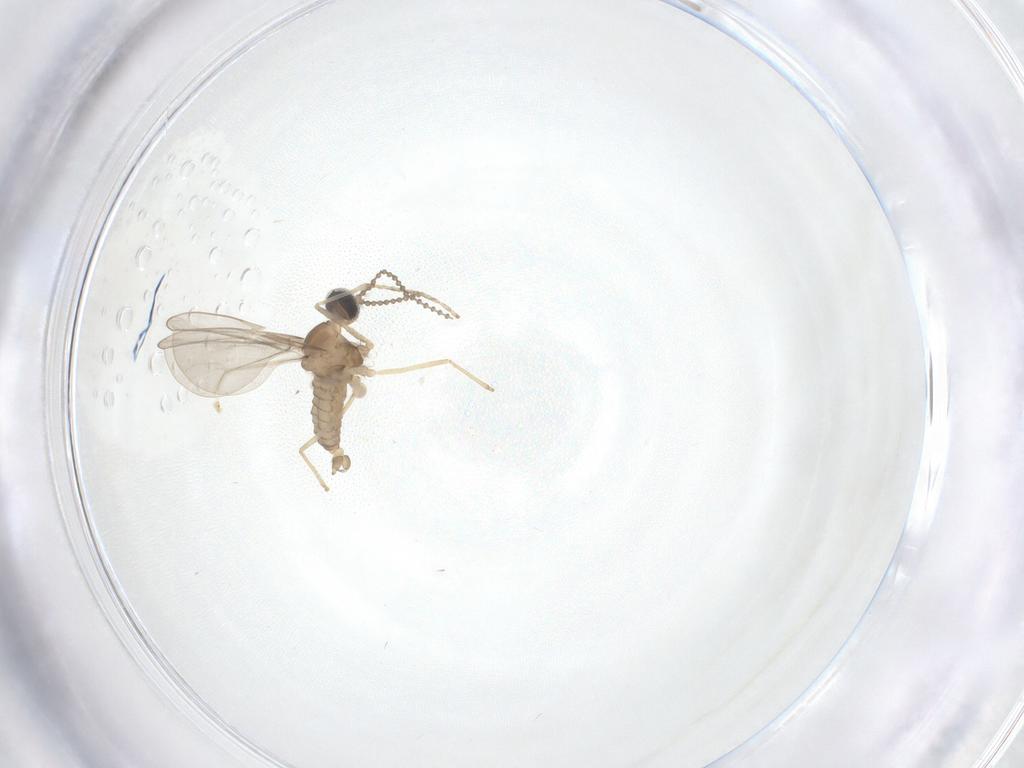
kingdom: Animalia
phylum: Arthropoda
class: Insecta
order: Diptera
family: Cecidomyiidae
